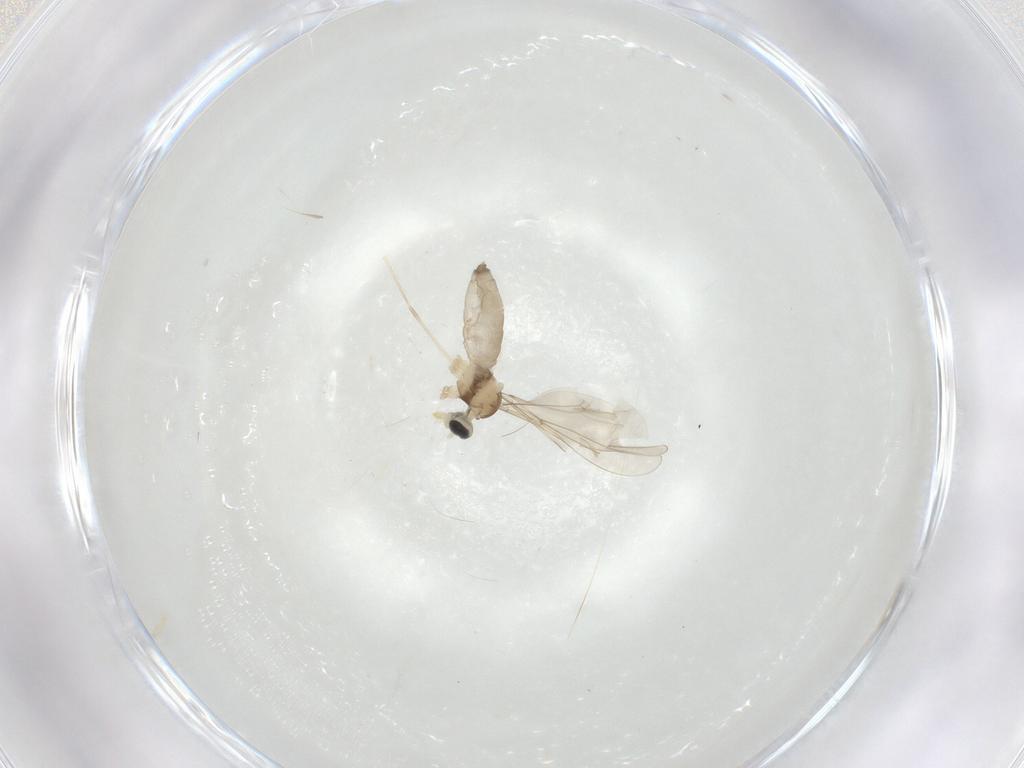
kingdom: Animalia
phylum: Arthropoda
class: Insecta
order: Diptera
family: Cecidomyiidae
